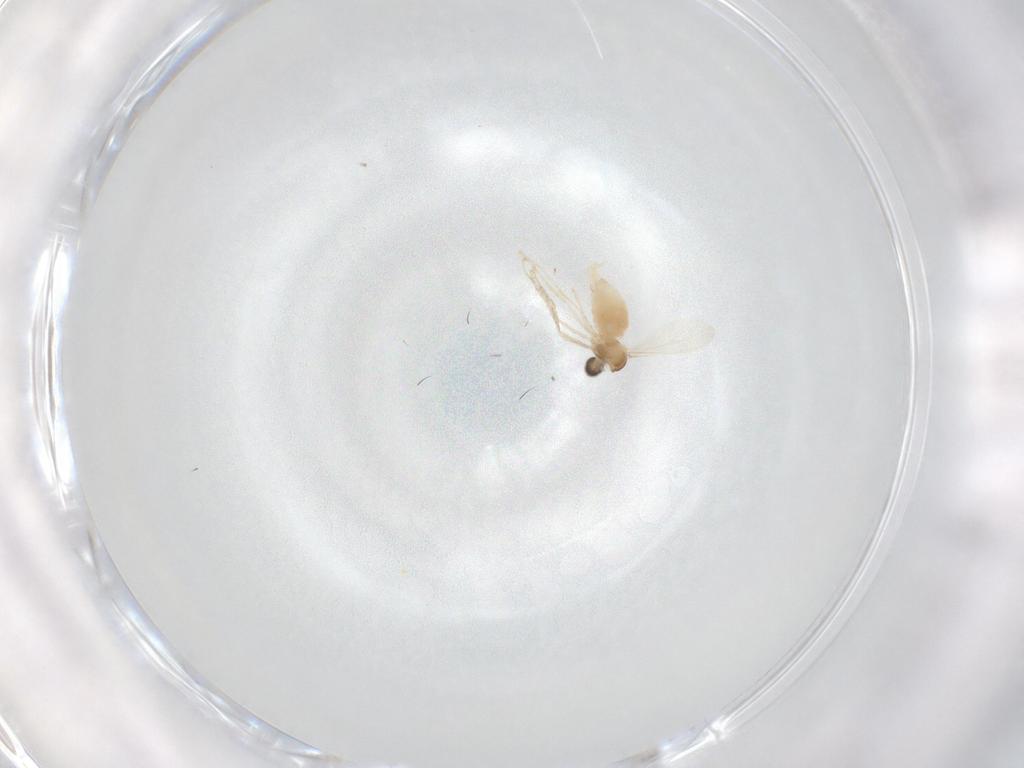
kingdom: Animalia
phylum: Arthropoda
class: Insecta
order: Diptera
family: Cecidomyiidae
